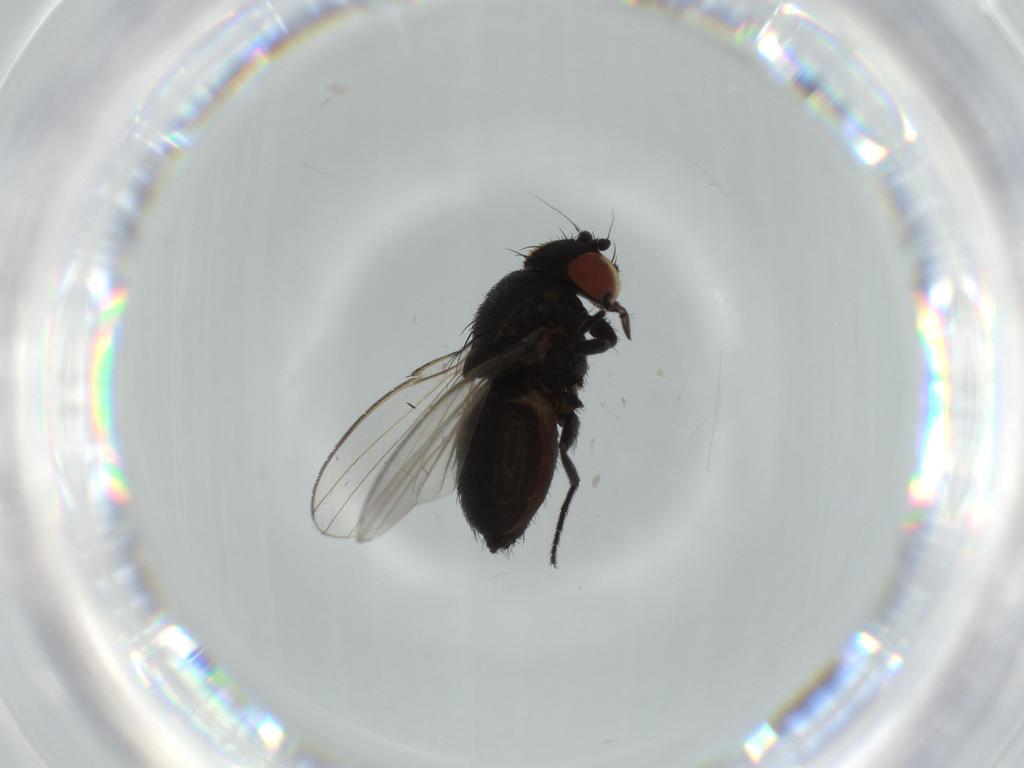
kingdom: Animalia
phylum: Arthropoda
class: Insecta
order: Diptera
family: Milichiidae
